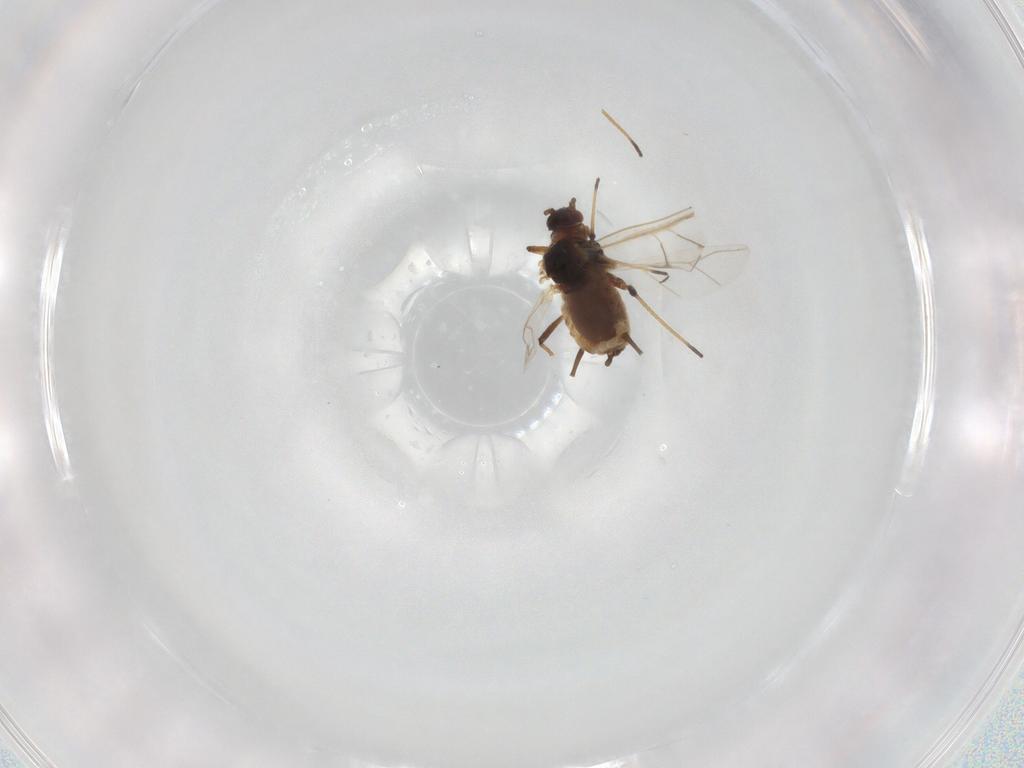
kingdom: Animalia
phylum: Arthropoda
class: Insecta
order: Hemiptera
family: Aphididae
